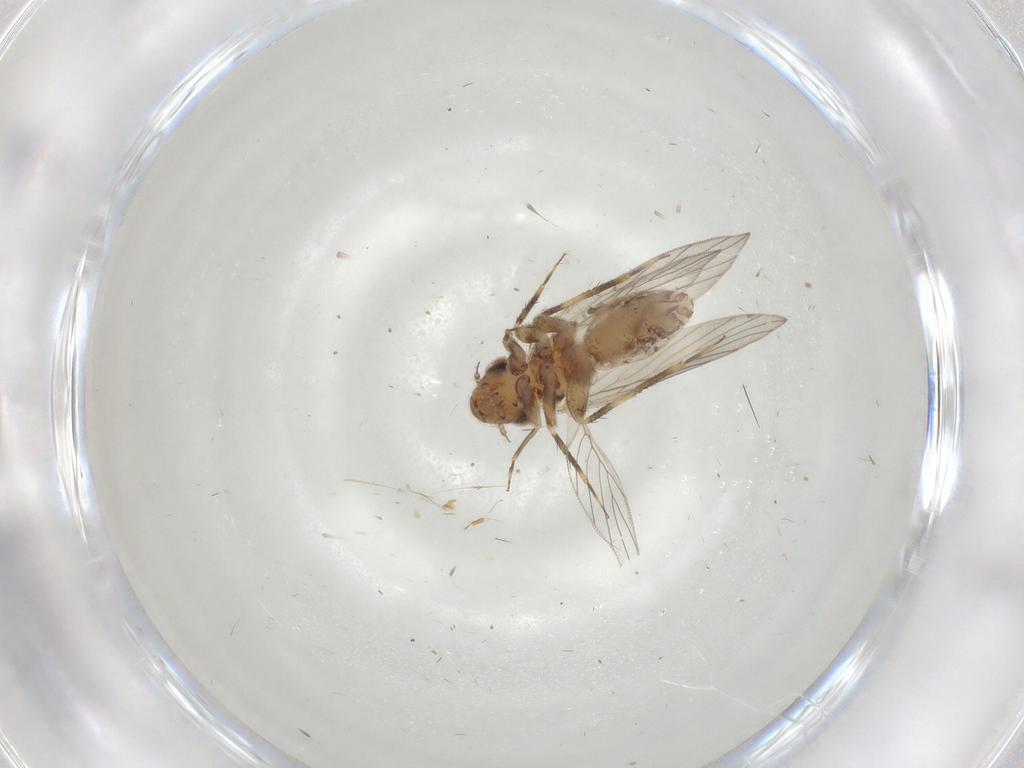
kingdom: Animalia
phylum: Arthropoda
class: Insecta
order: Psocodea
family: Lepidopsocidae
